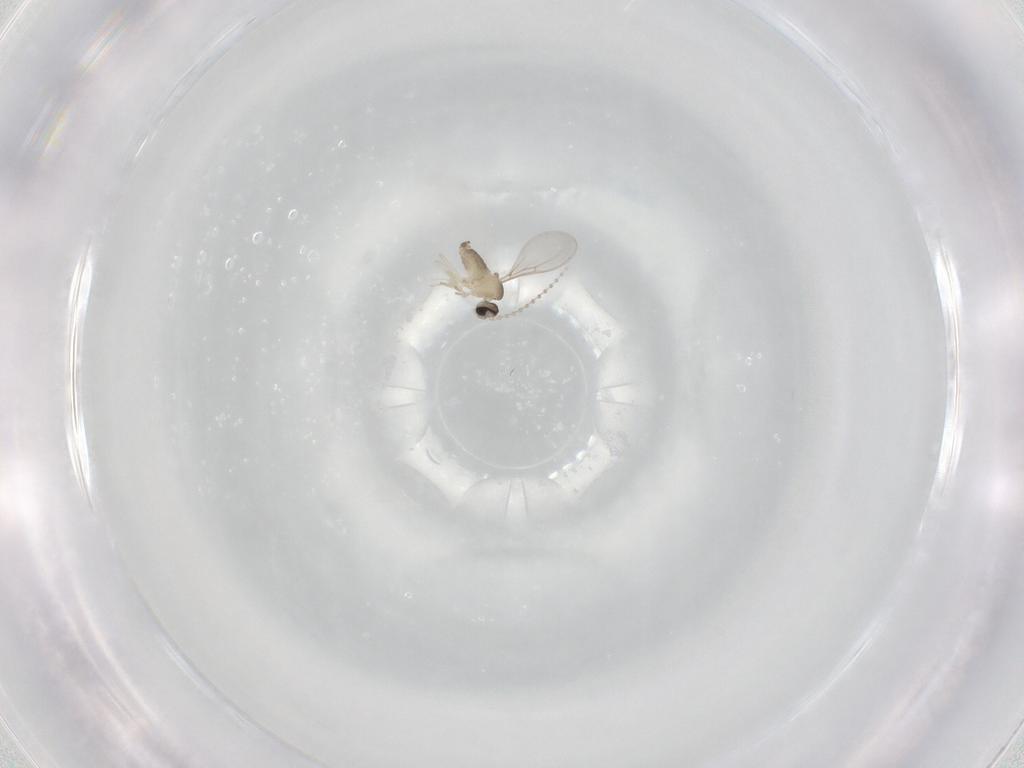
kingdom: Animalia
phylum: Arthropoda
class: Insecta
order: Diptera
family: Cecidomyiidae
